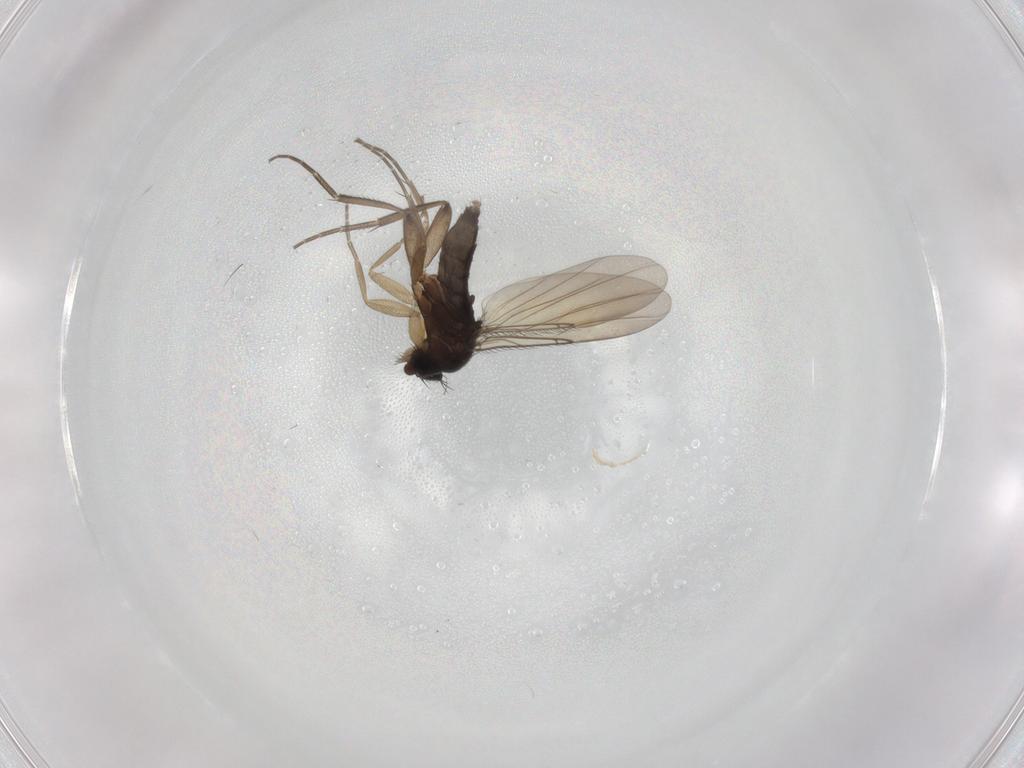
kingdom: Animalia
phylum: Arthropoda
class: Insecta
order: Diptera
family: Phoridae
